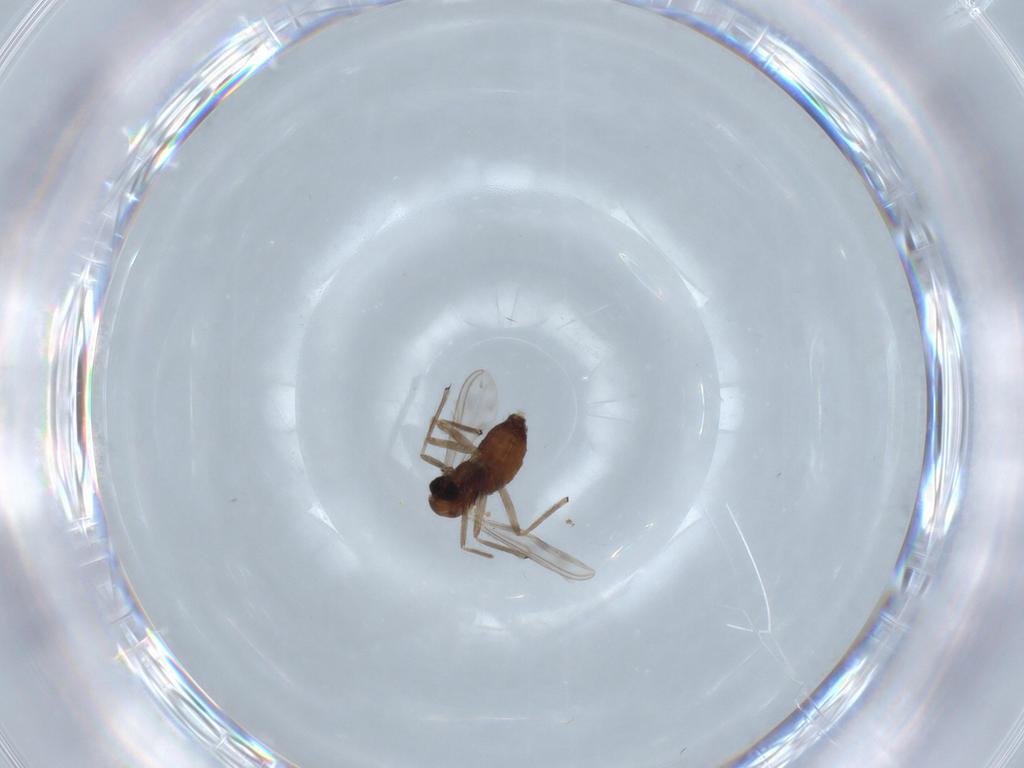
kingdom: Animalia
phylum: Arthropoda
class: Insecta
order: Diptera
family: Chironomidae
